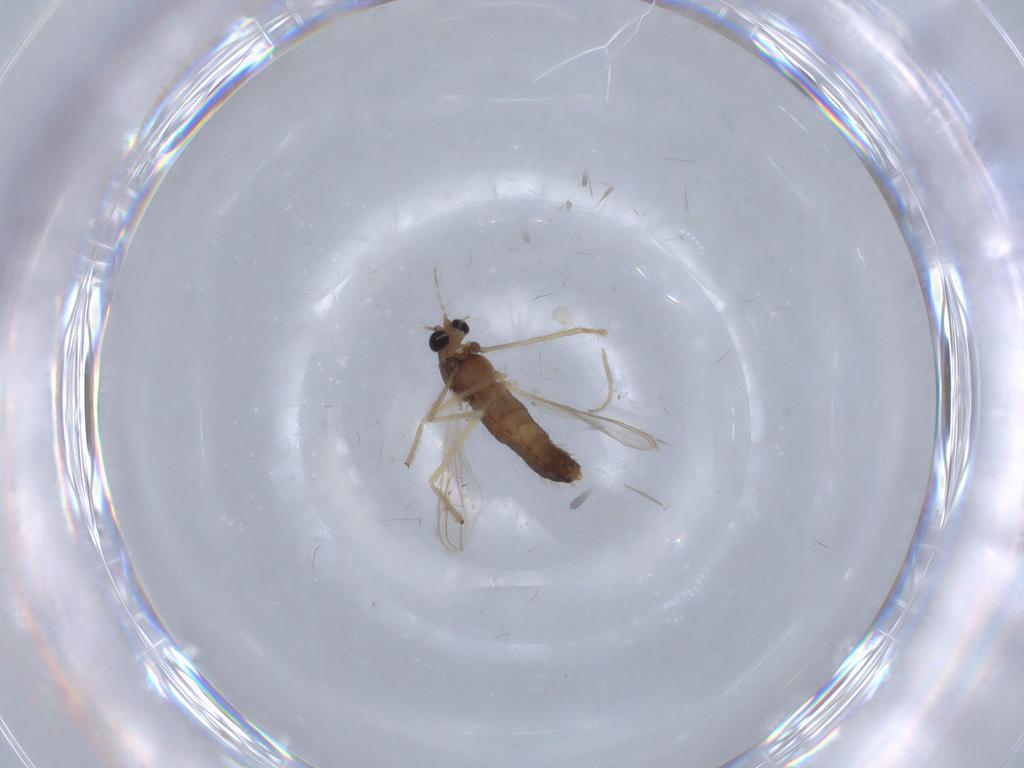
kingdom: Animalia
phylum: Arthropoda
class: Insecta
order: Diptera
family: Chironomidae
